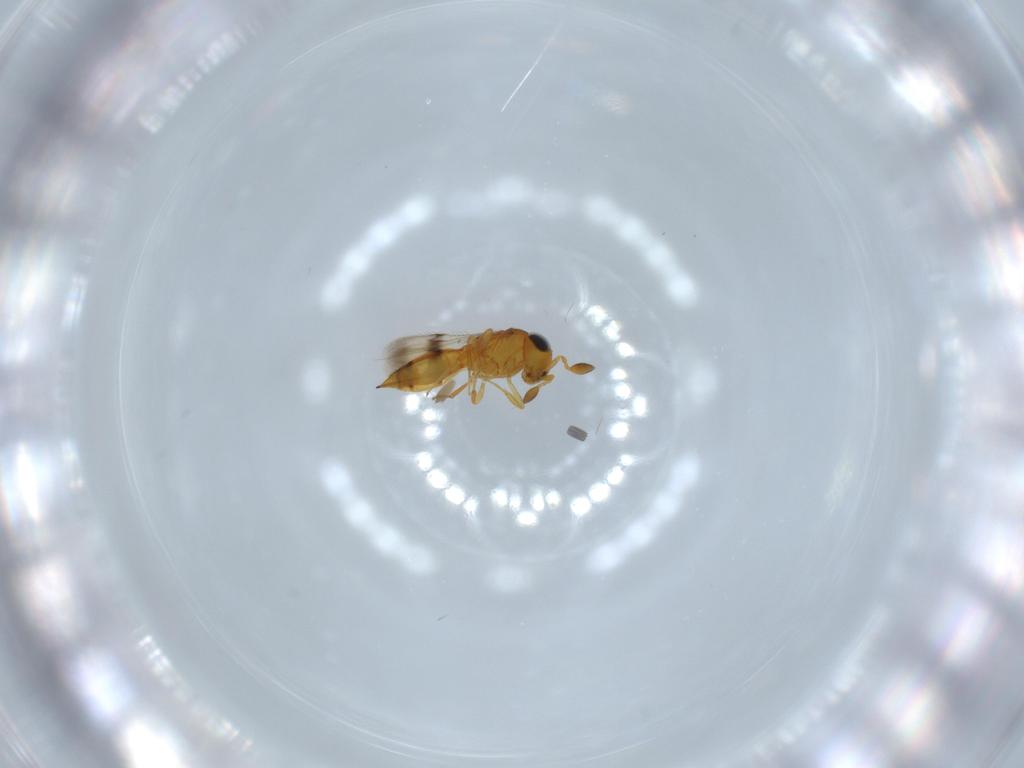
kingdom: Animalia
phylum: Arthropoda
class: Insecta
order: Hymenoptera
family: Scelionidae
